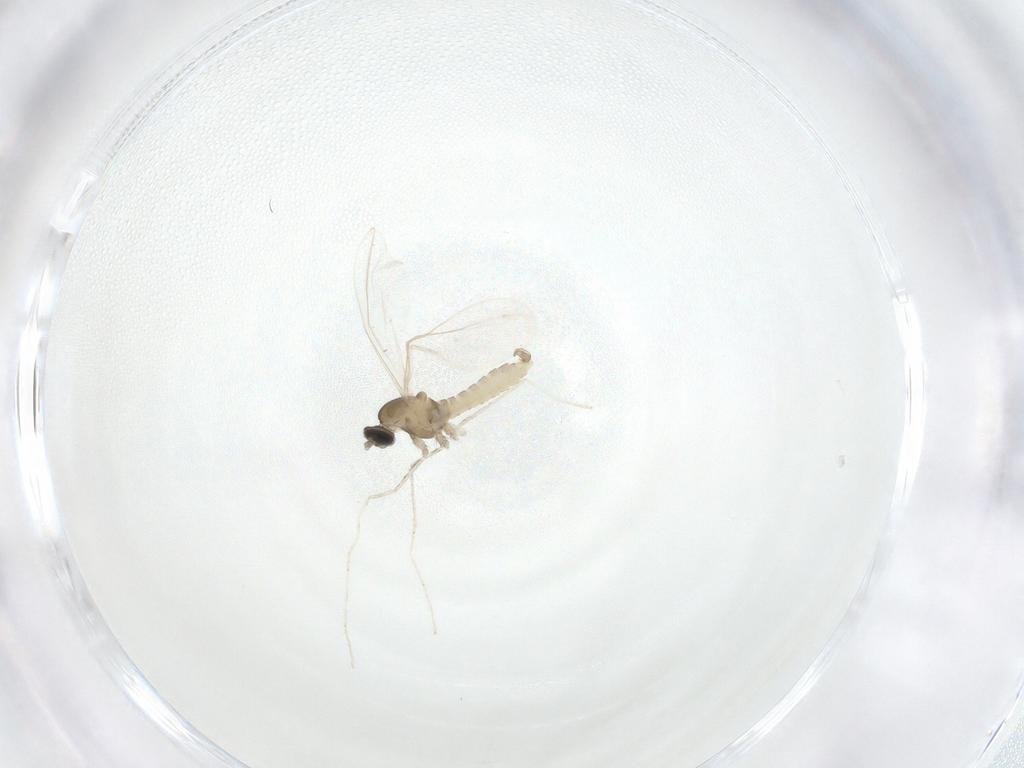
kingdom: Animalia
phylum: Arthropoda
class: Insecta
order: Diptera
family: Cecidomyiidae
